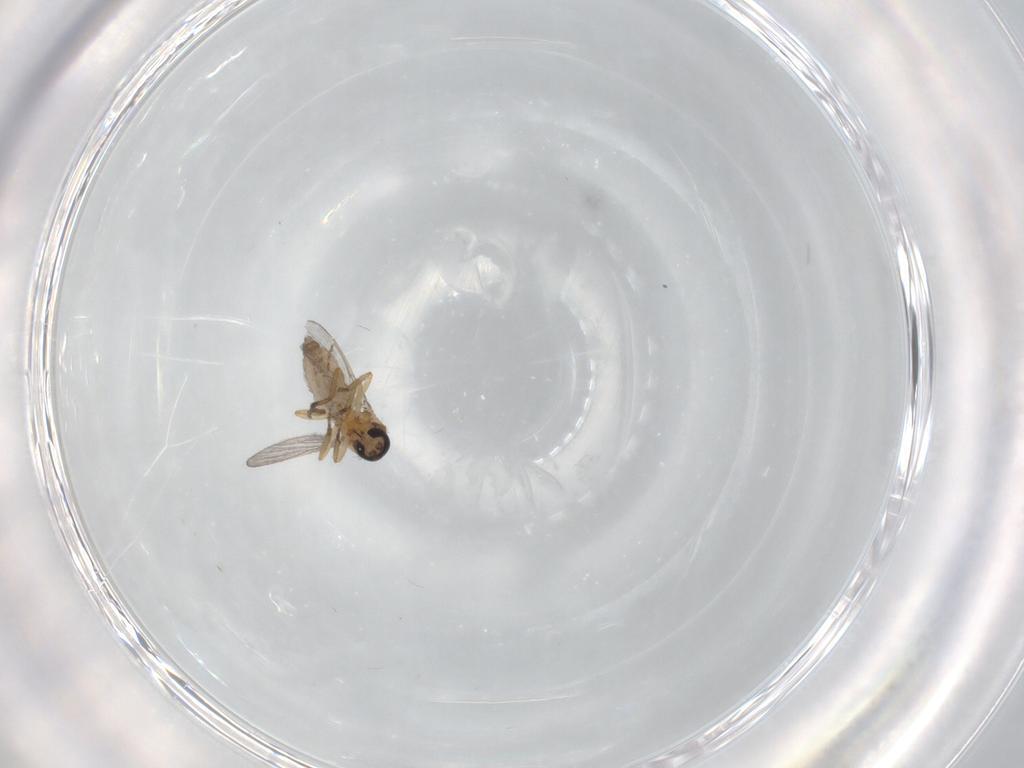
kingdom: Animalia
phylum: Arthropoda
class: Insecta
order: Diptera
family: Ceratopogonidae
